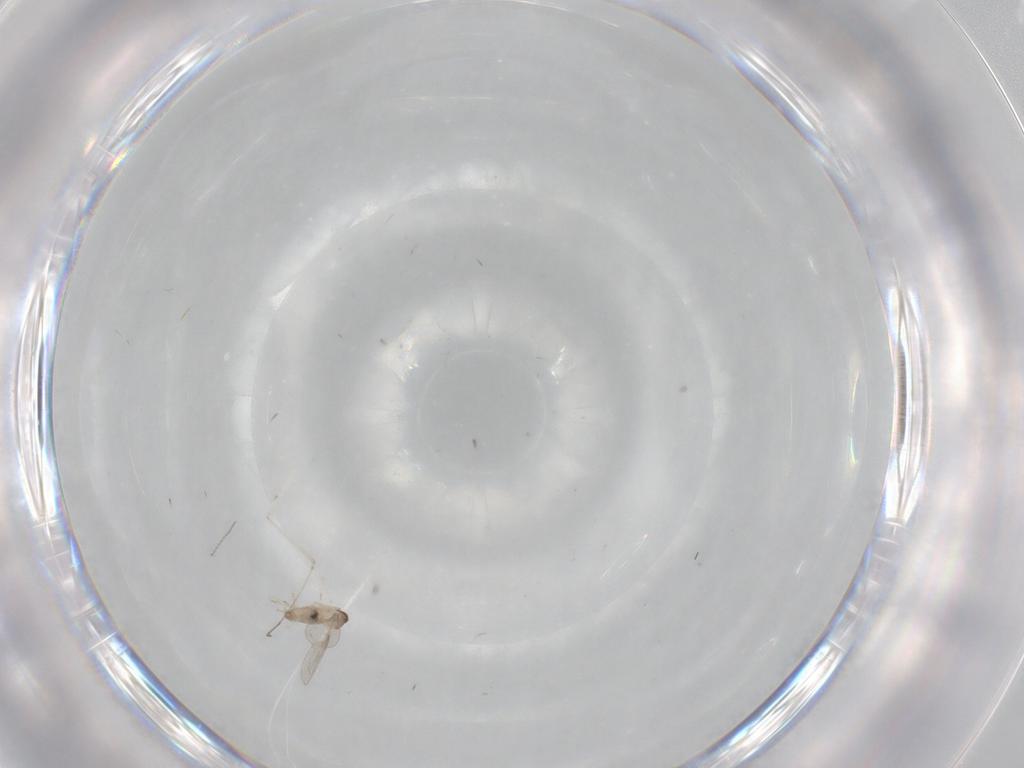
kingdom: Animalia
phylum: Arthropoda
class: Insecta
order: Diptera
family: Cecidomyiidae
